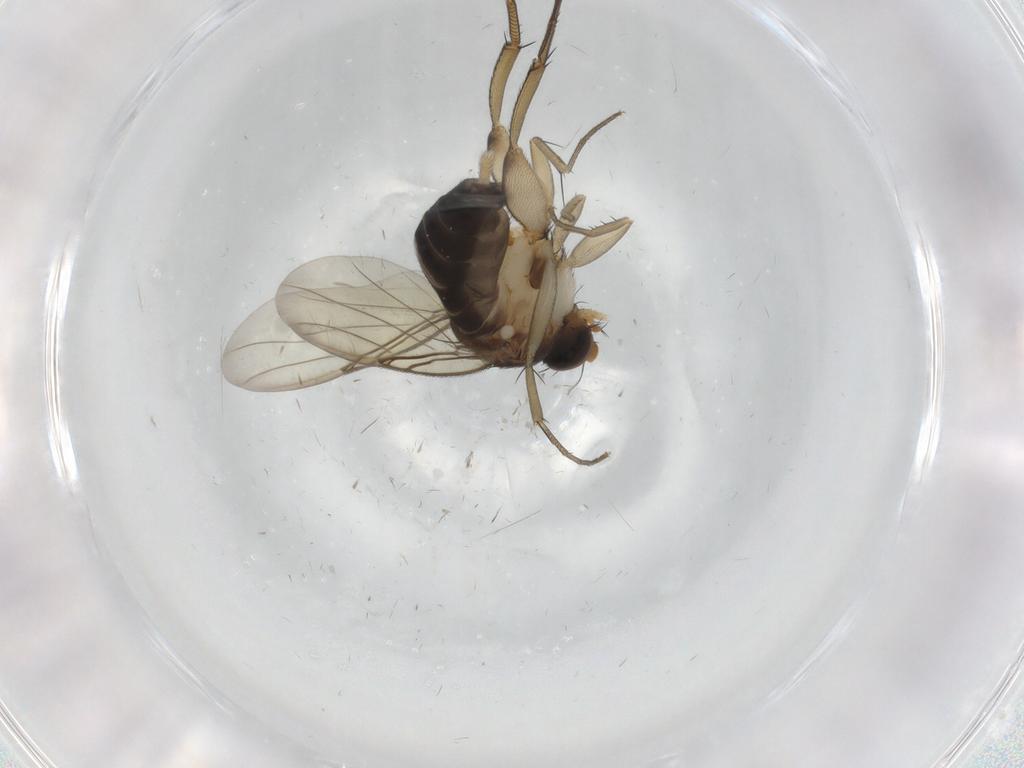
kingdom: Animalia
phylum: Arthropoda
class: Insecta
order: Diptera
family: Phoridae
